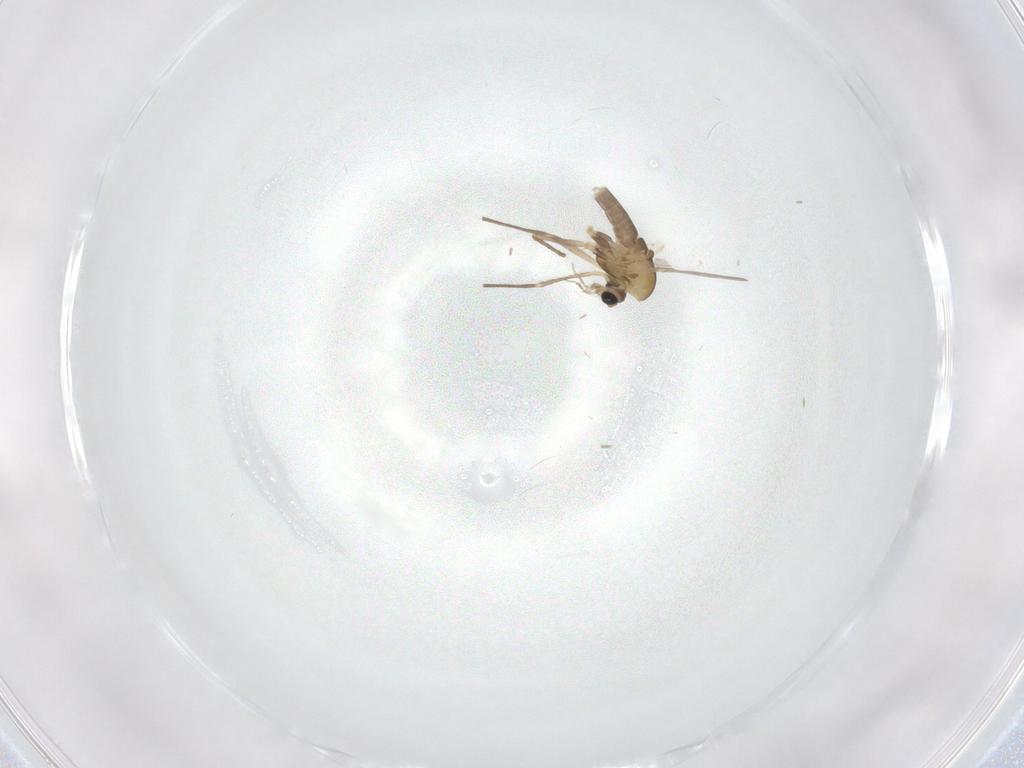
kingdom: Animalia
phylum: Arthropoda
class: Insecta
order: Diptera
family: Chironomidae
